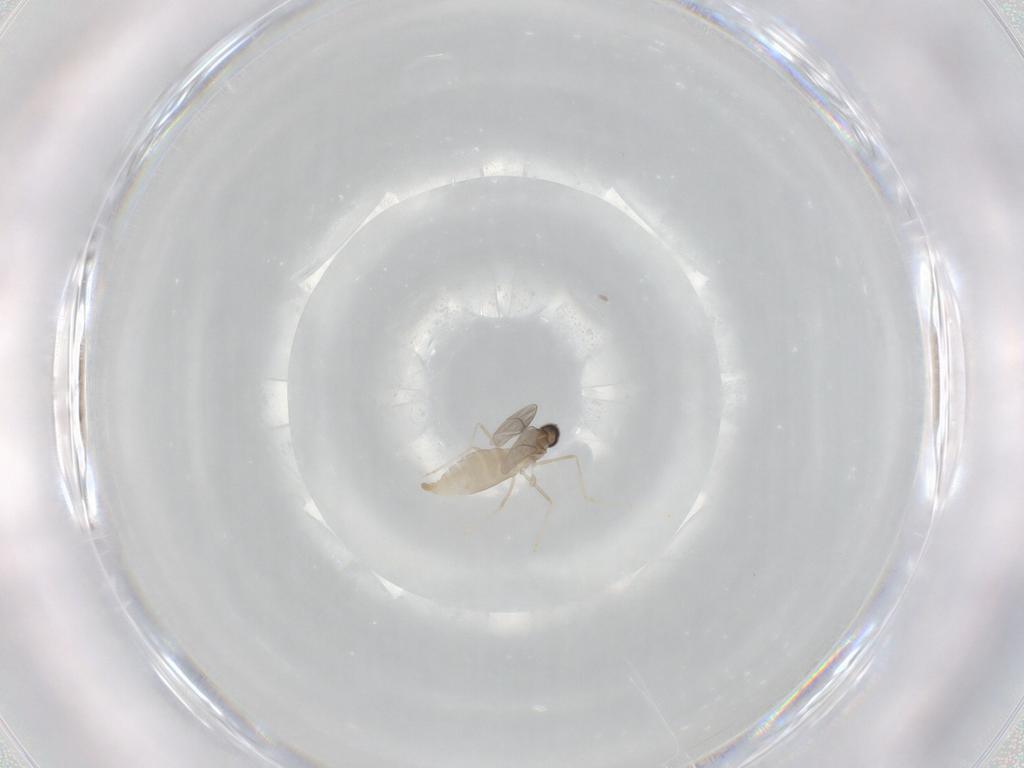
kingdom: Animalia
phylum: Arthropoda
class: Insecta
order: Diptera
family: Cecidomyiidae
